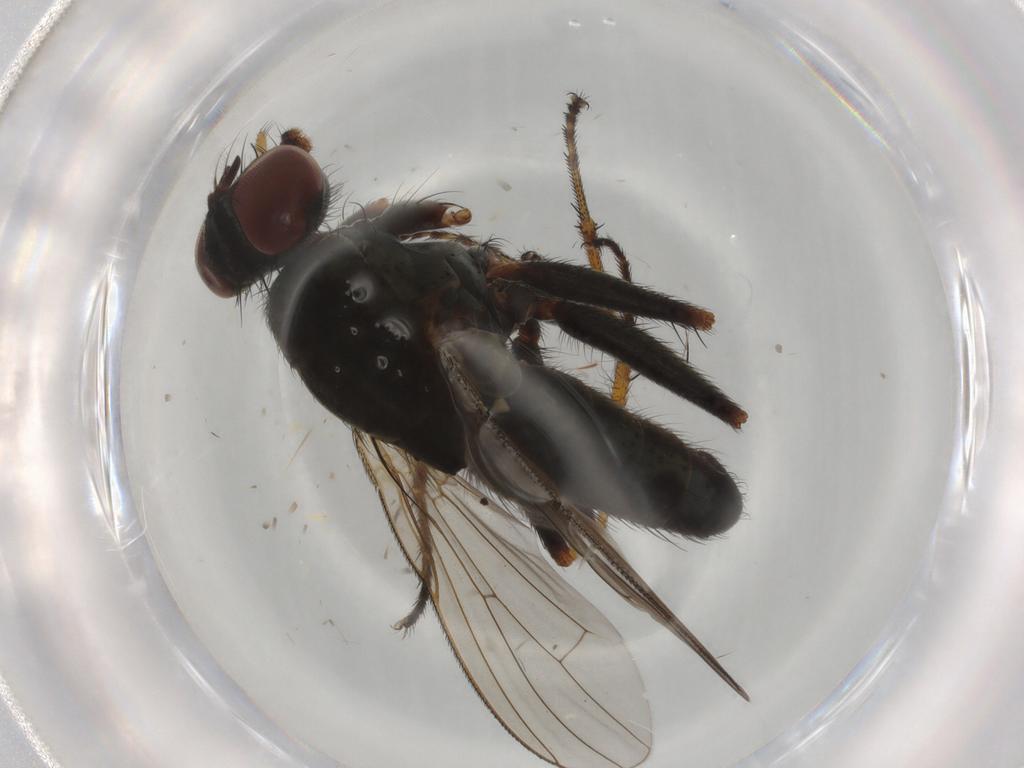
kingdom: Animalia
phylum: Arthropoda
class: Insecta
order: Diptera
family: Muscidae
